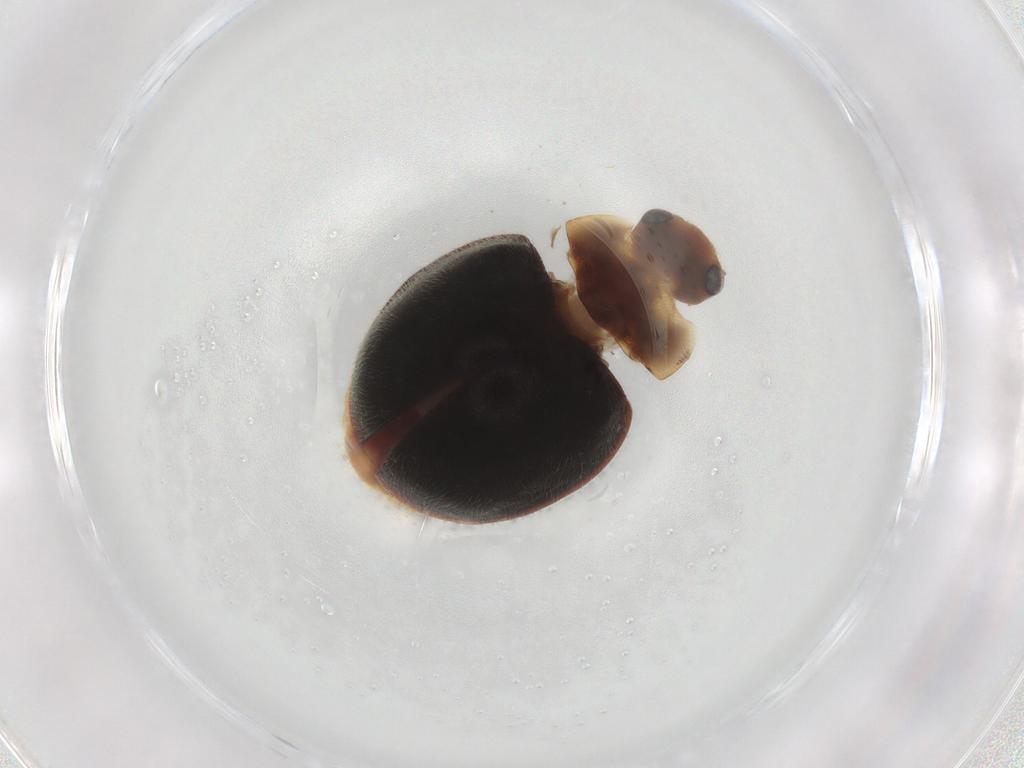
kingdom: Animalia
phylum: Arthropoda
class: Insecta
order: Coleoptera
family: Coccinellidae
